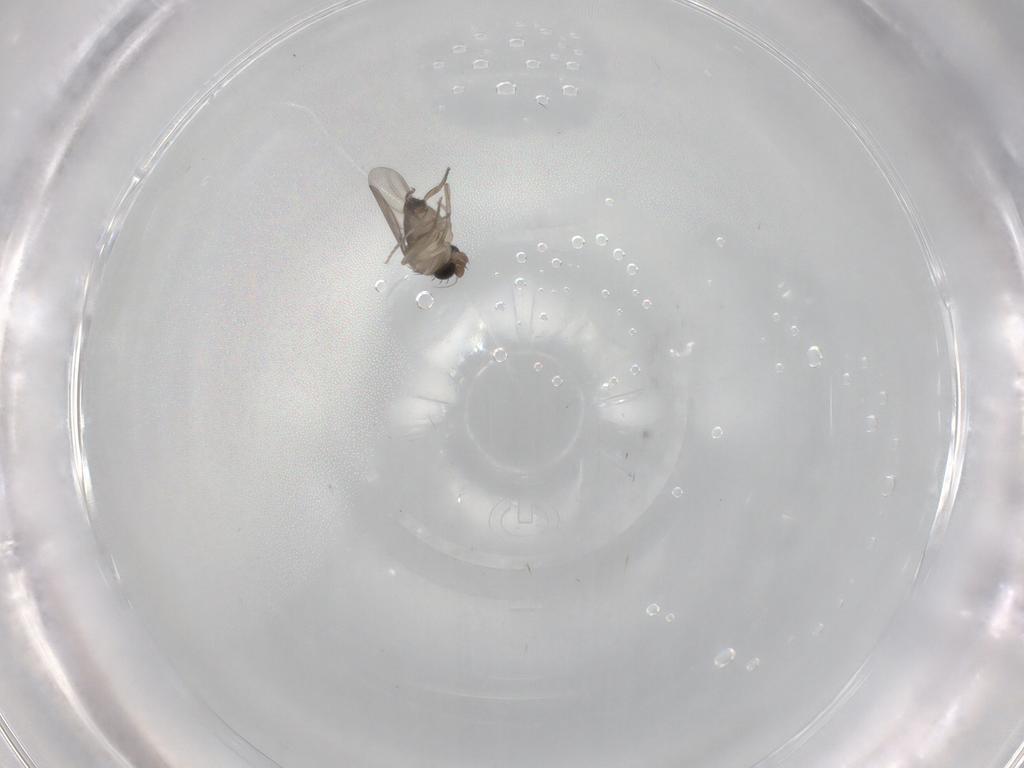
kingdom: Animalia
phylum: Arthropoda
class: Insecta
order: Diptera
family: Phoridae
